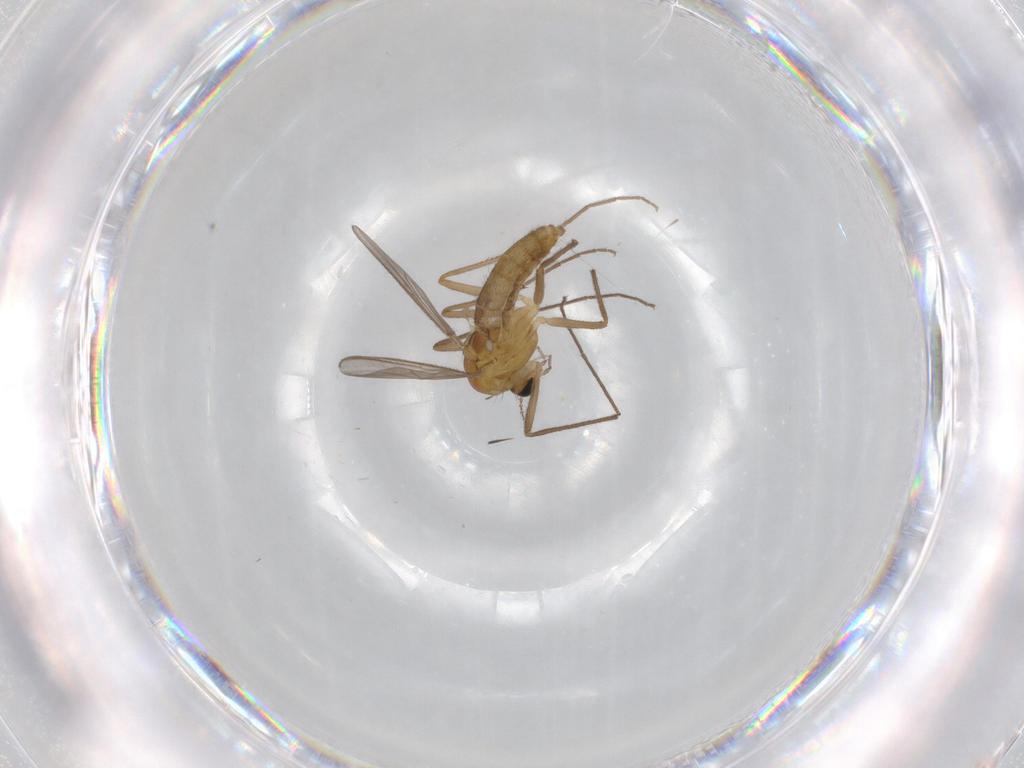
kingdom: Animalia
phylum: Arthropoda
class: Insecta
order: Diptera
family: Chironomidae
